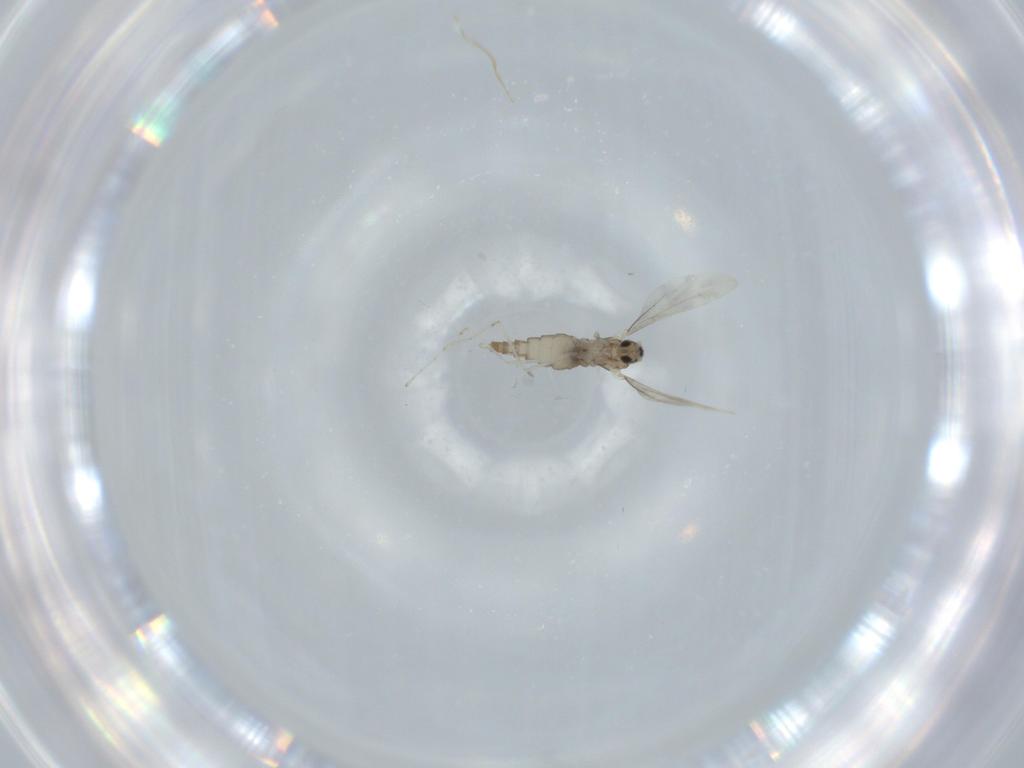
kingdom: Animalia
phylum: Arthropoda
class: Insecta
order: Diptera
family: Cecidomyiidae
